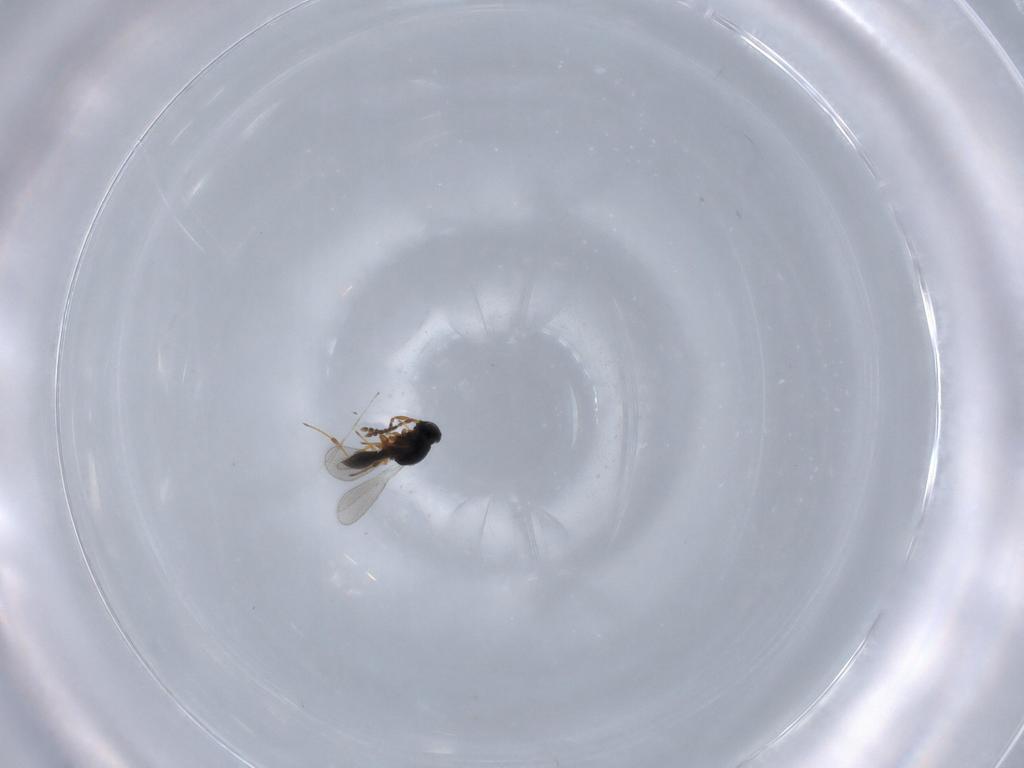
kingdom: Animalia
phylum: Arthropoda
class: Insecta
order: Hymenoptera
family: Platygastridae
